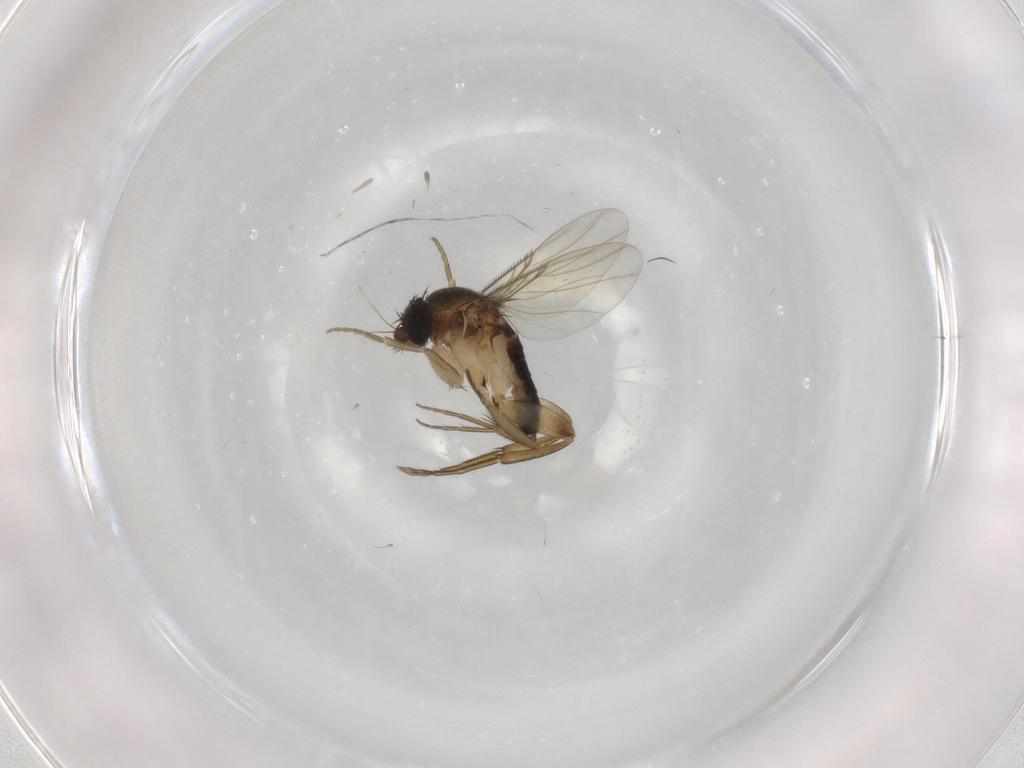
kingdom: Animalia
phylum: Arthropoda
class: Insecta
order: Diptera
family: Phoridae
